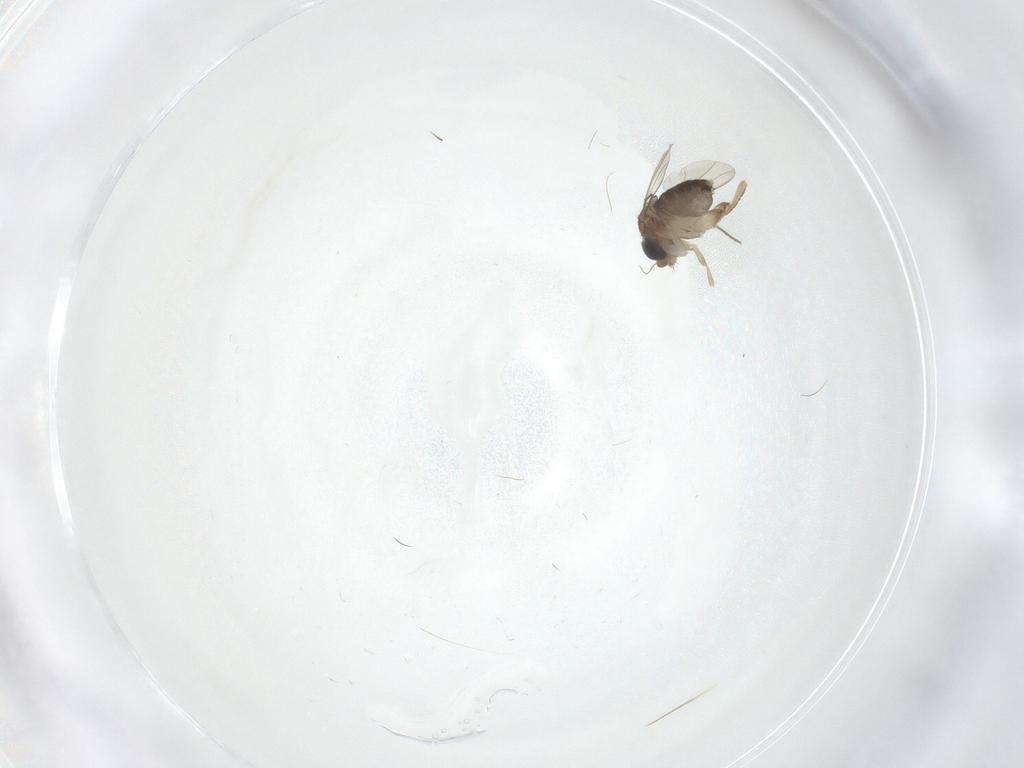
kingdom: Animalia
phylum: Arthropoda
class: Insecta
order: Diptera
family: Phoridae
